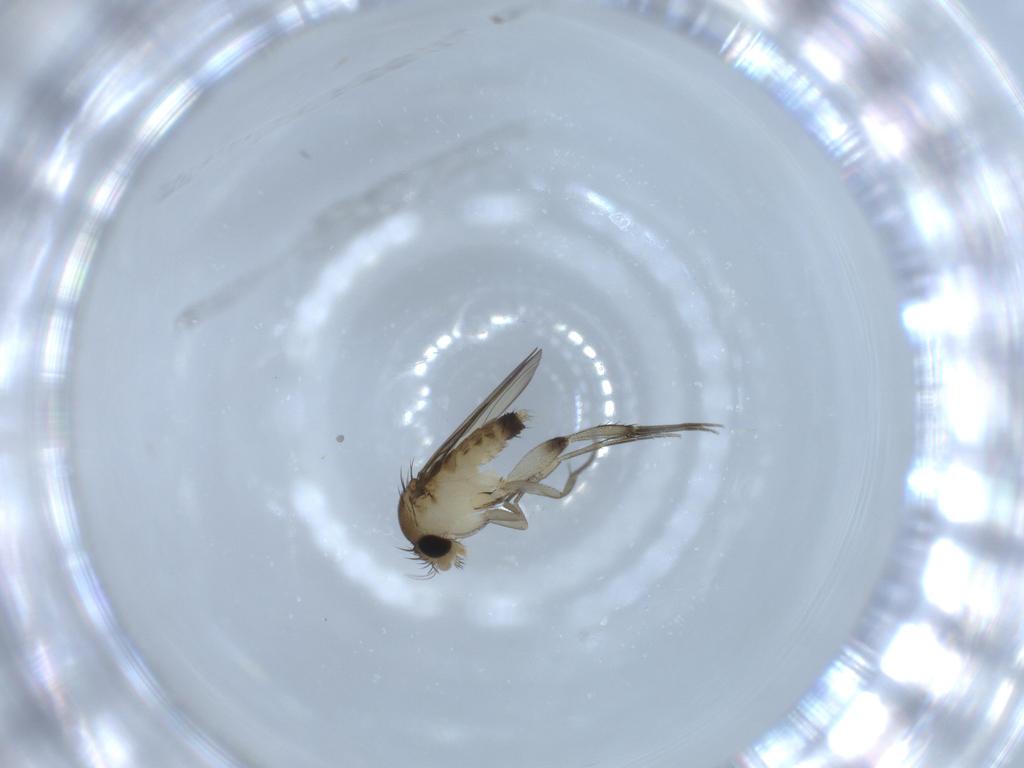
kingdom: Animalia
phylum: Arthropoda
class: Insecta
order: Diptera
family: Phoridae
